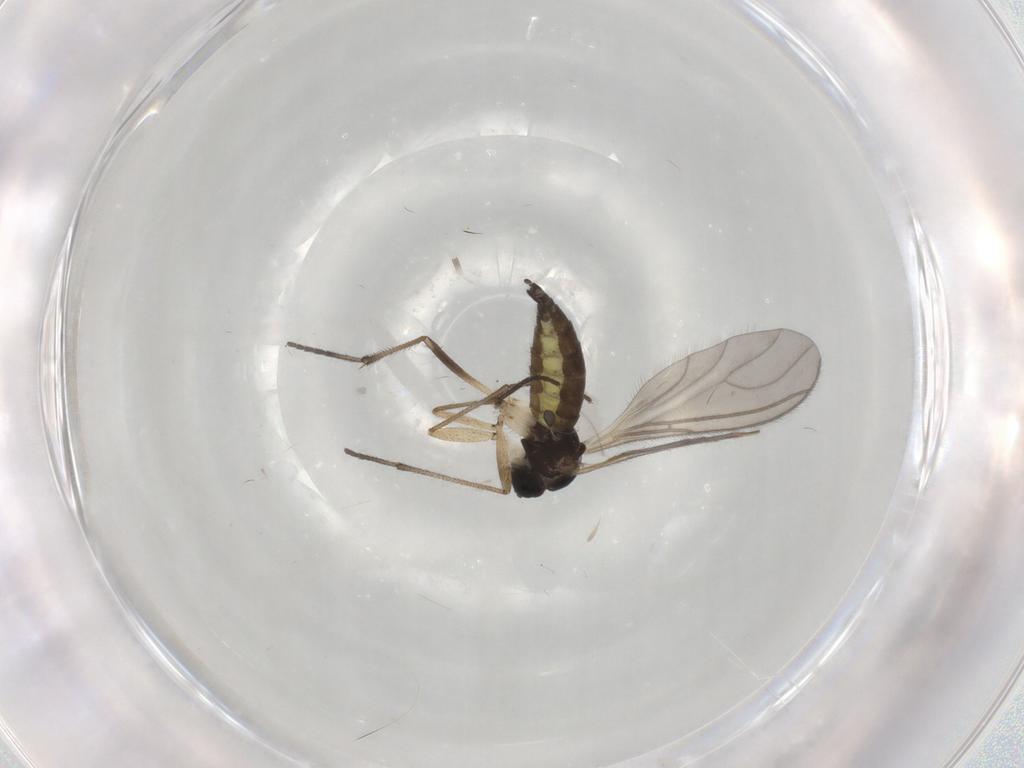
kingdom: Animalia
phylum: Arthropoda
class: Insecta
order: Diptera
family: Sciaridae
